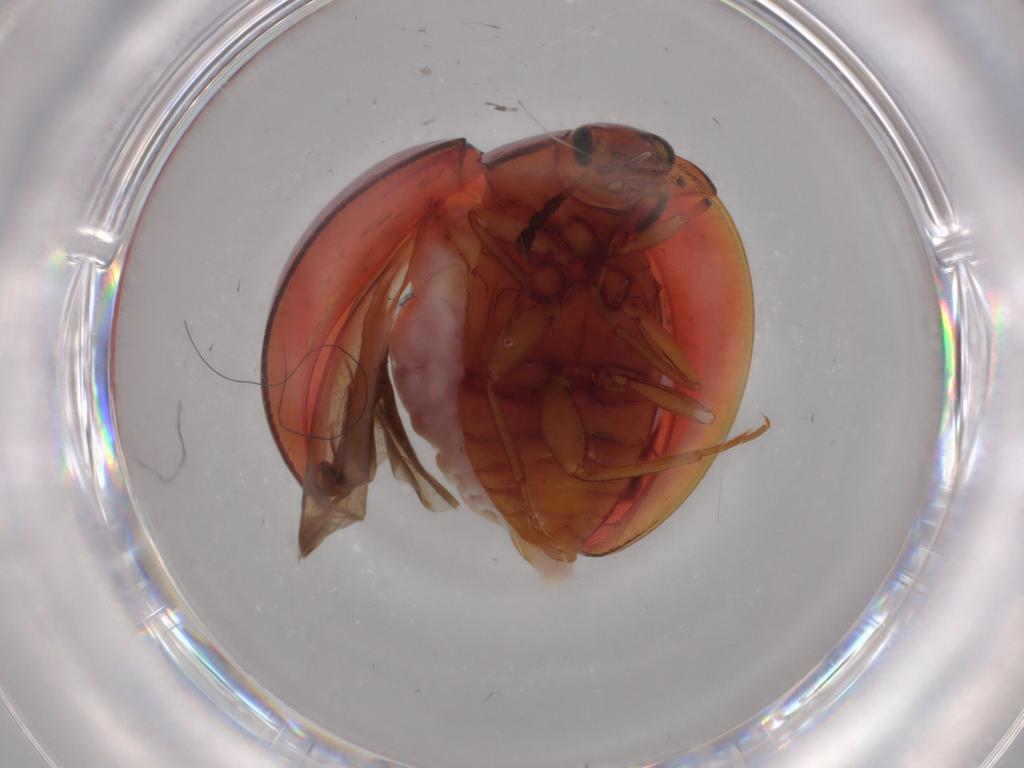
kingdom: Animalia
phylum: Arthropoda
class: Insecta
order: Coleoptera
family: Anamorphidae
